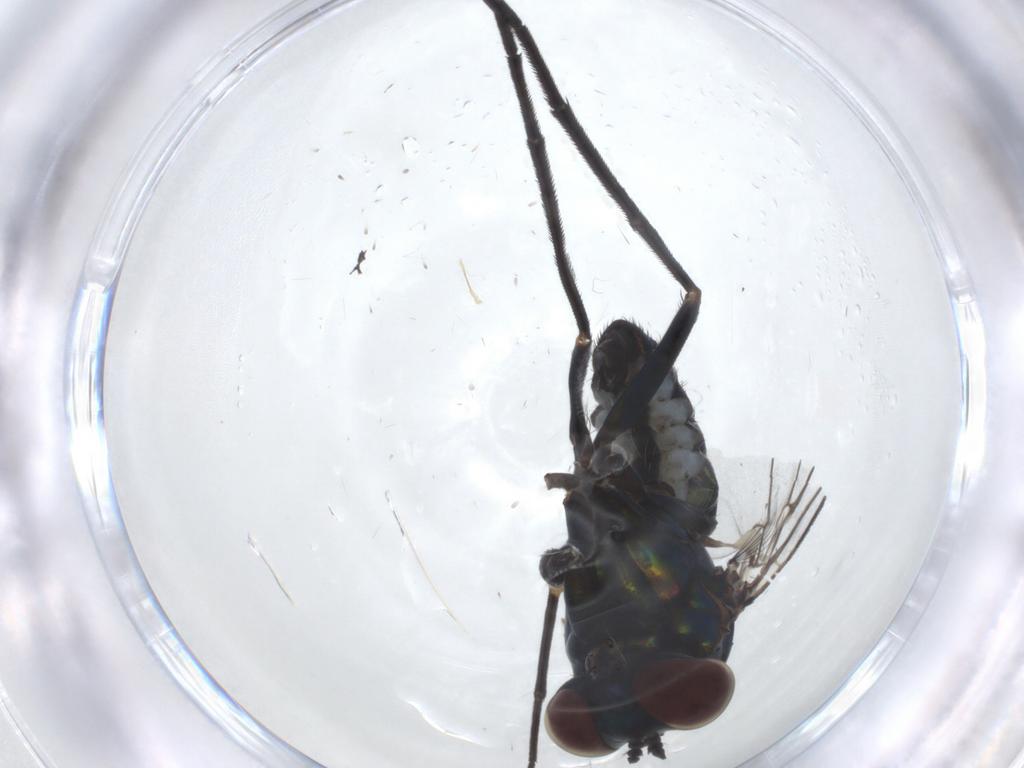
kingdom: Animalia
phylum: Arthropoda
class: Insecta
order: Diptera
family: Dolichopodidae
